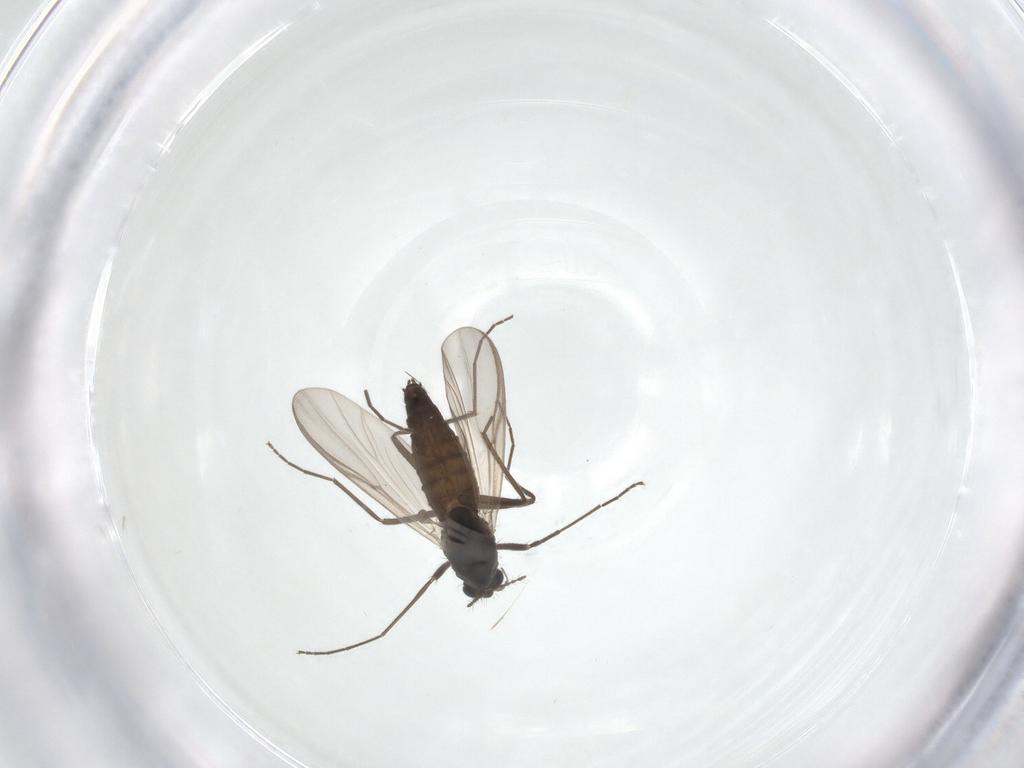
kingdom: Animalia
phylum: Arthropoda
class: Insecta
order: Diptera
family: Chironomidae
